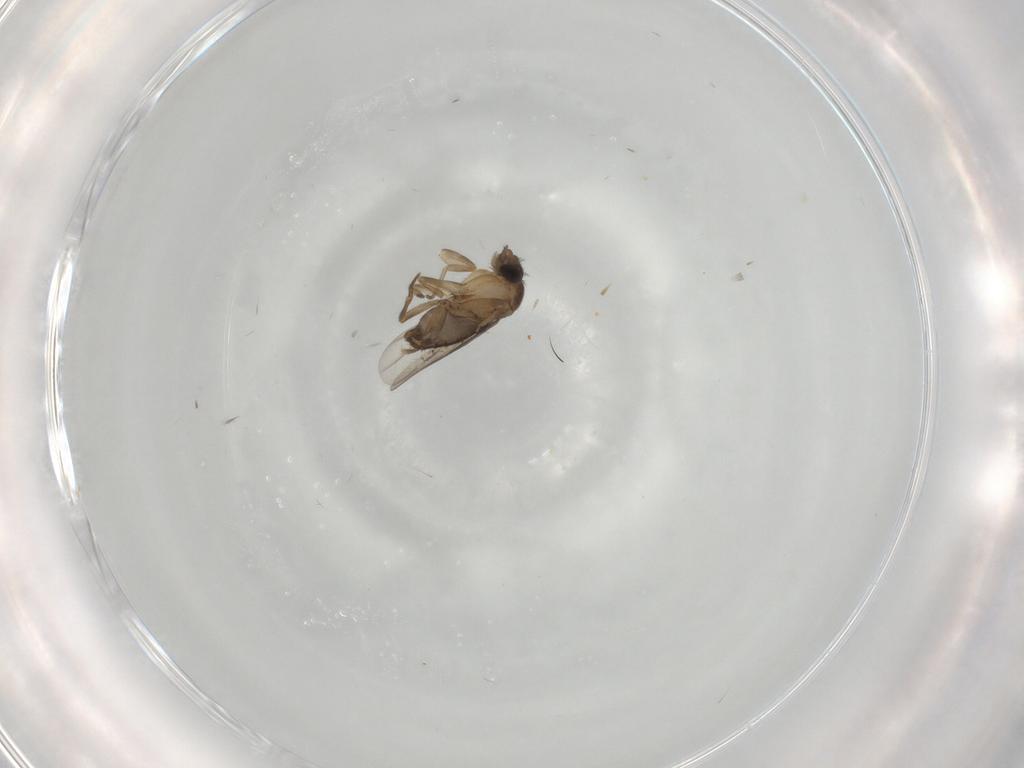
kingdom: Animalia
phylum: Arthropoda
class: Insecta
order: Diptera
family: Phoridae
